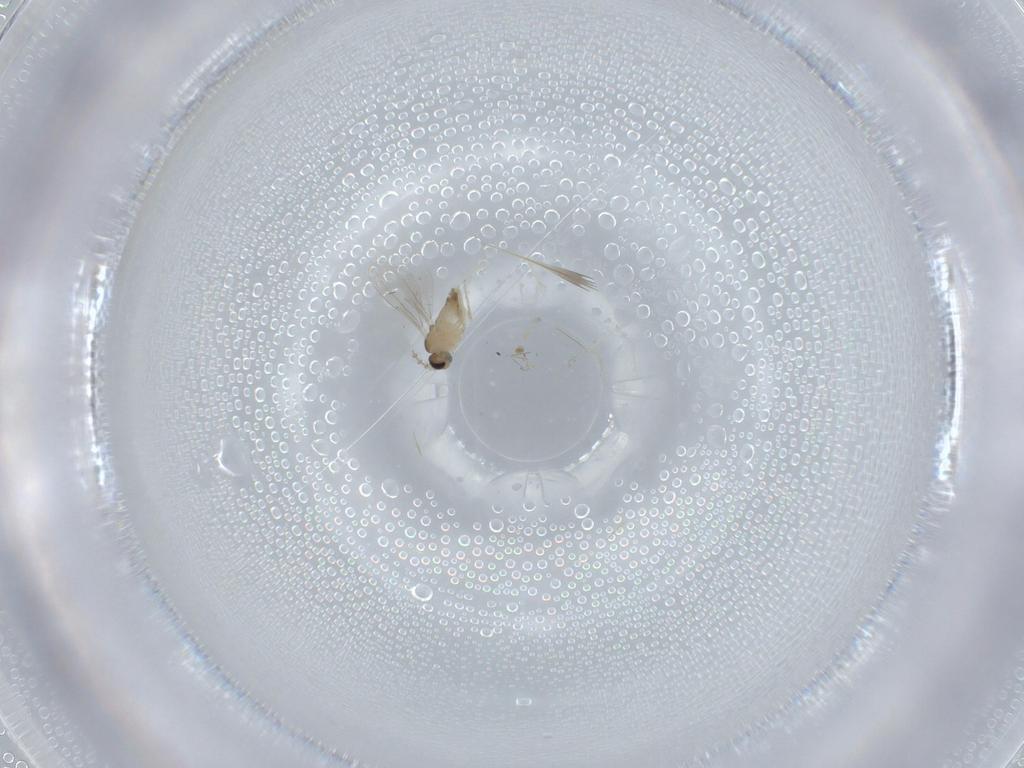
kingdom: Animalia
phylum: Arthropoda
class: Insecta
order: Diptera
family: Cecidomyiidae
